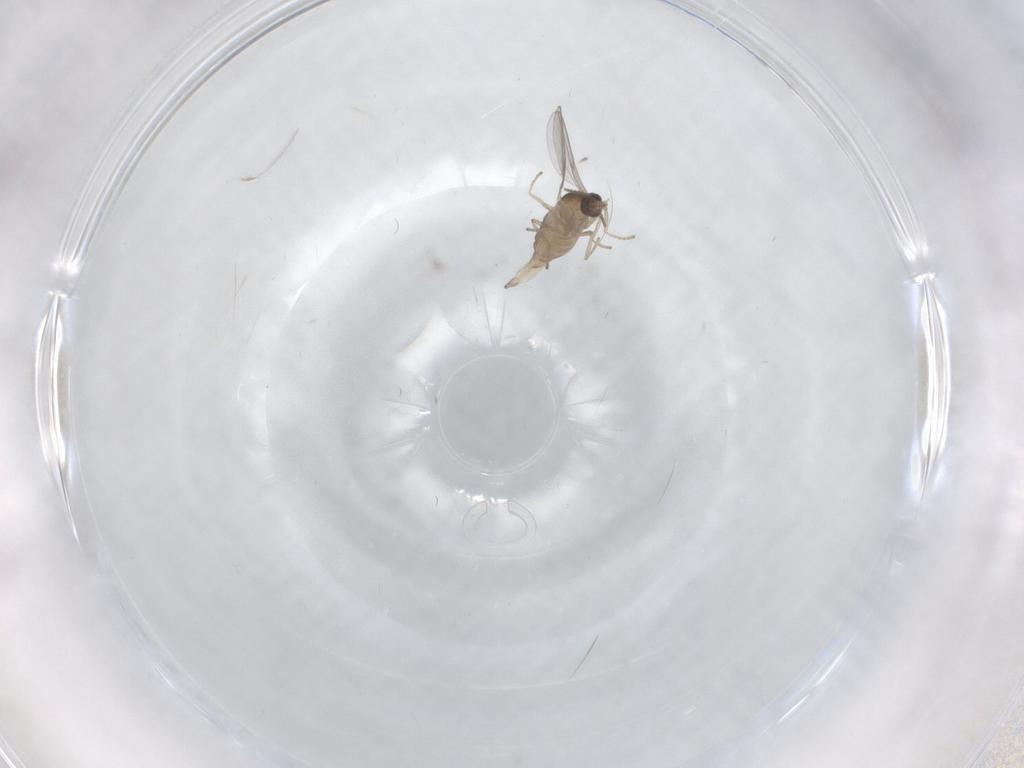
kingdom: Animalia
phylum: Arthropoda
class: Insecta
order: Diptera
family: Cecidomyiidae
